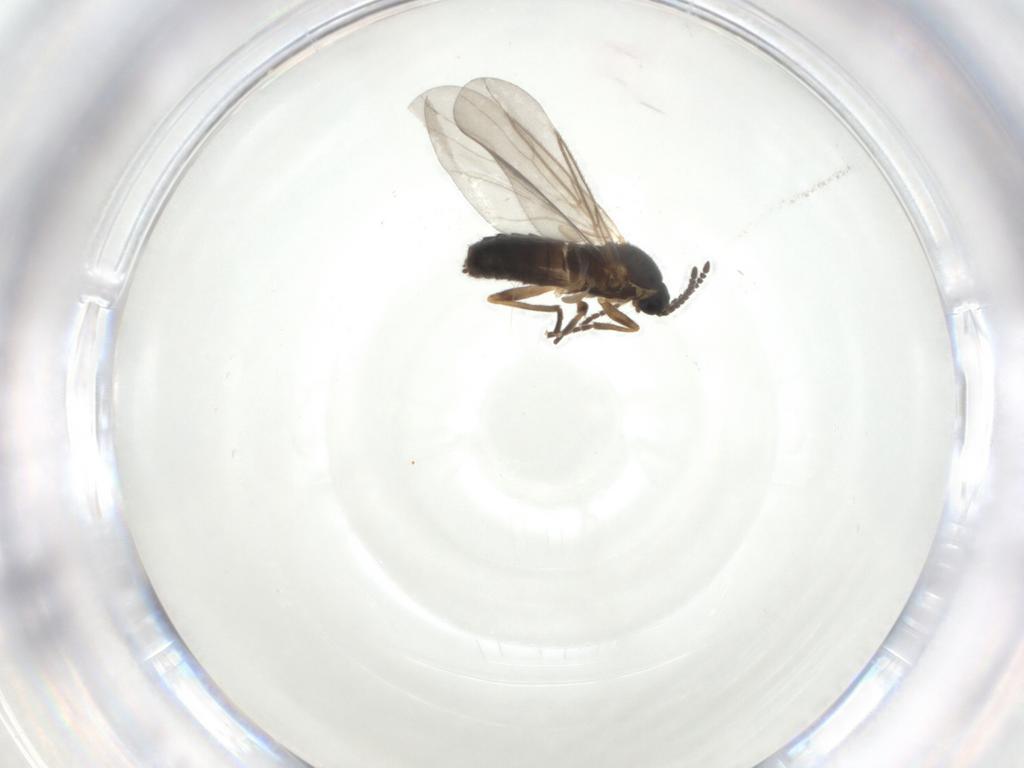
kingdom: Animalia
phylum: Arthropoda
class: Insecta
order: Diptera
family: Scatopsidae
